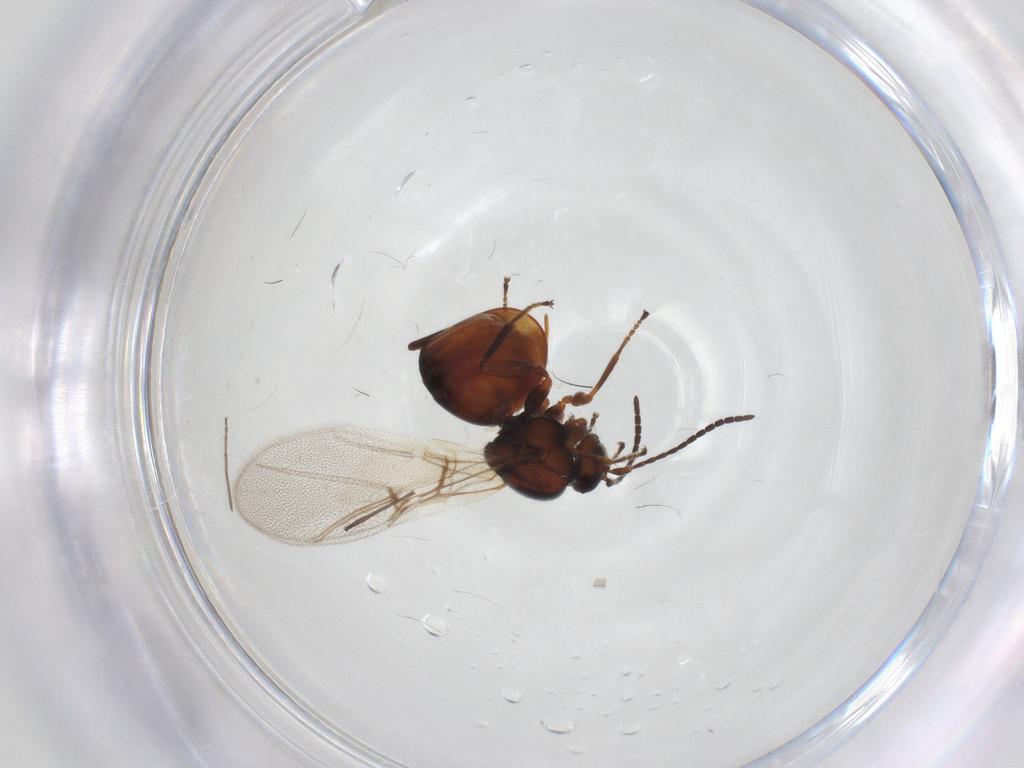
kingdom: Animalia
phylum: Arthropoda
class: Insecta
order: Hymenoptera
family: Cynipidae
